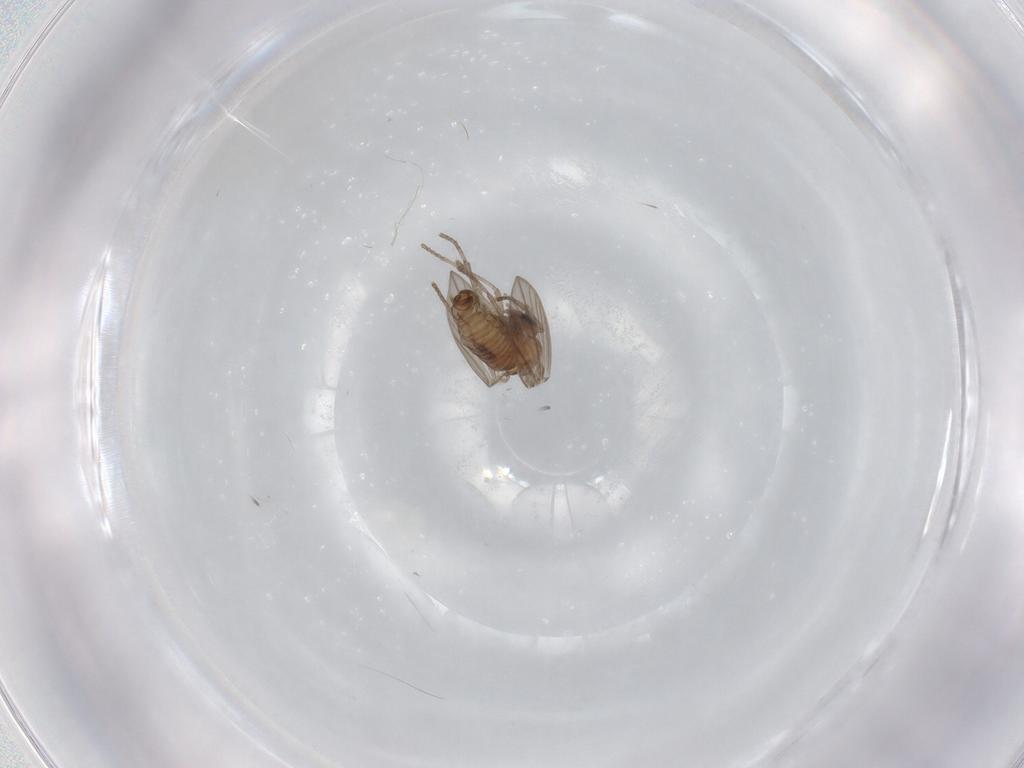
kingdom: Animalia
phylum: Arthropoda
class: Insecta
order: Diptera
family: Psychodidae
